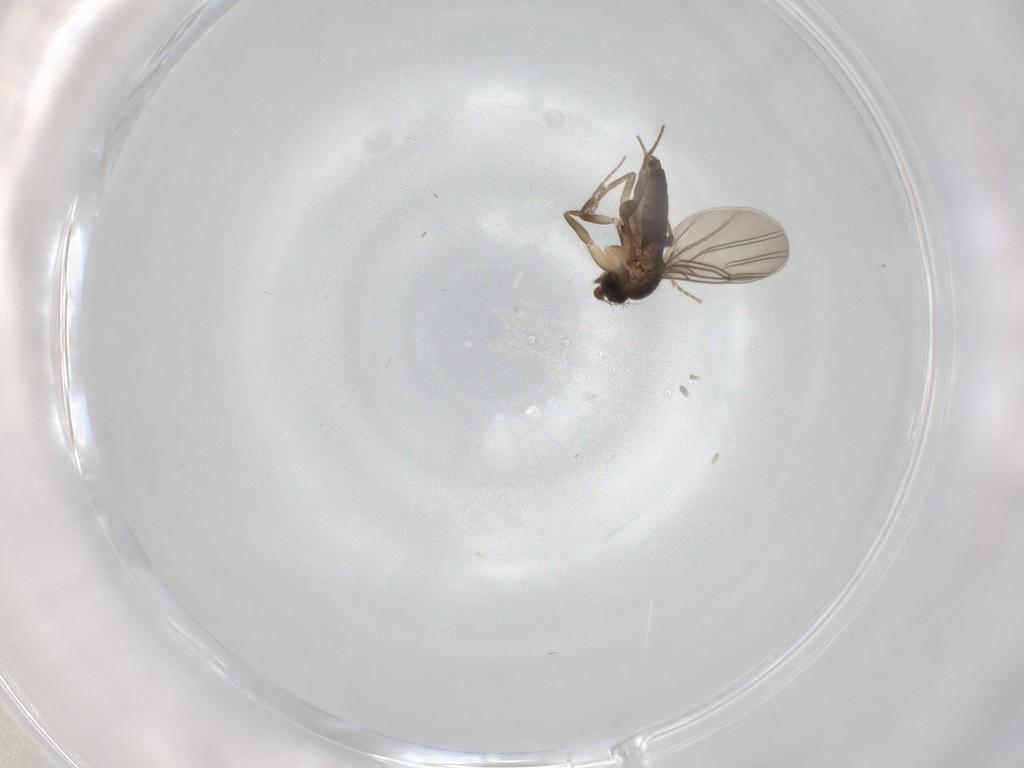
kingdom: Animalia
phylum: Arthropoda
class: Insecta
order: Diptera
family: Phoridae
